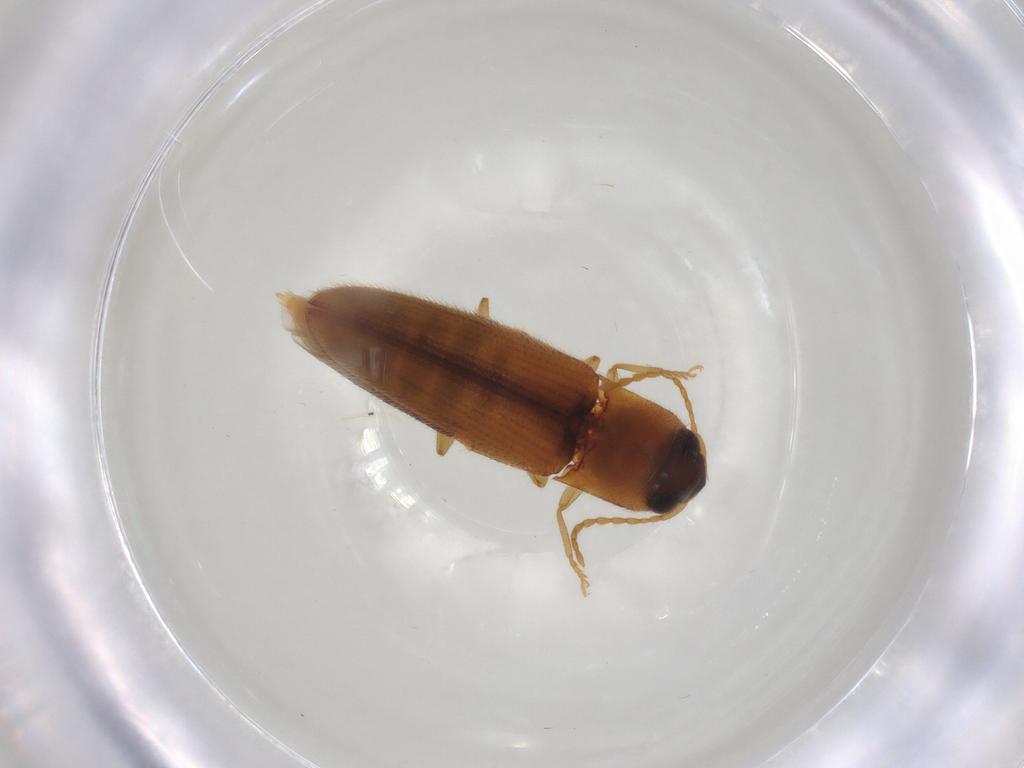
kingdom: Animalia
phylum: Arthropoda
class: Insecta
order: Coleoptera
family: Elateridae
